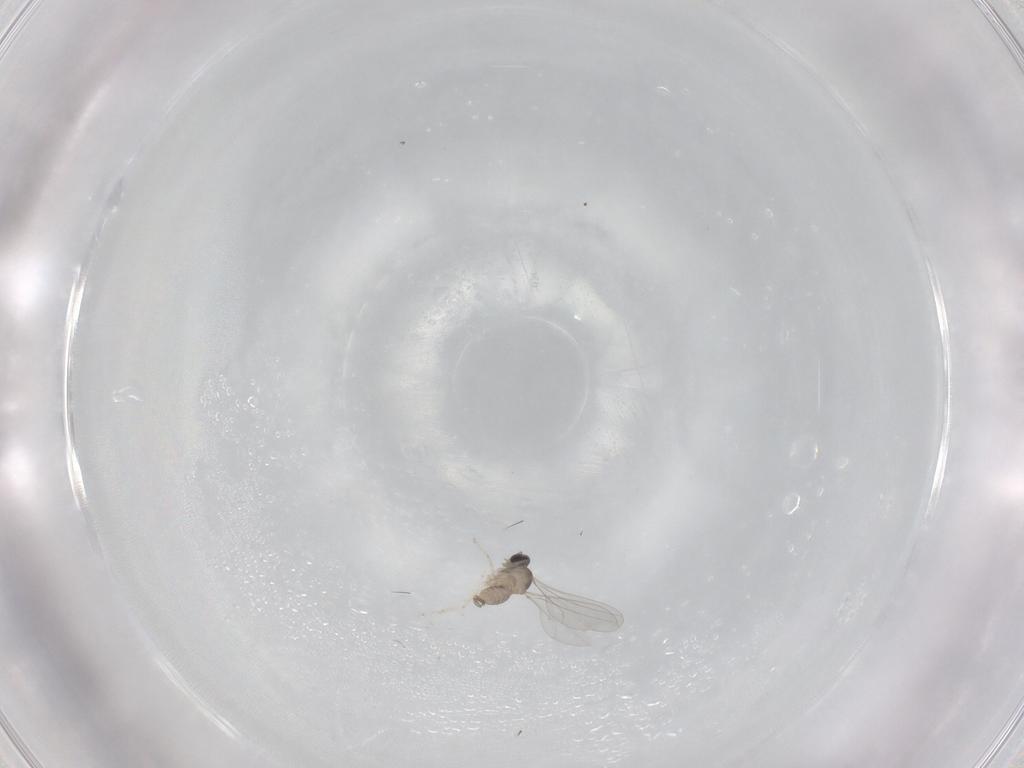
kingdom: Animalia
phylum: Arthropoda
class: Insecta
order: Diptera
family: Cecidomyiidae
